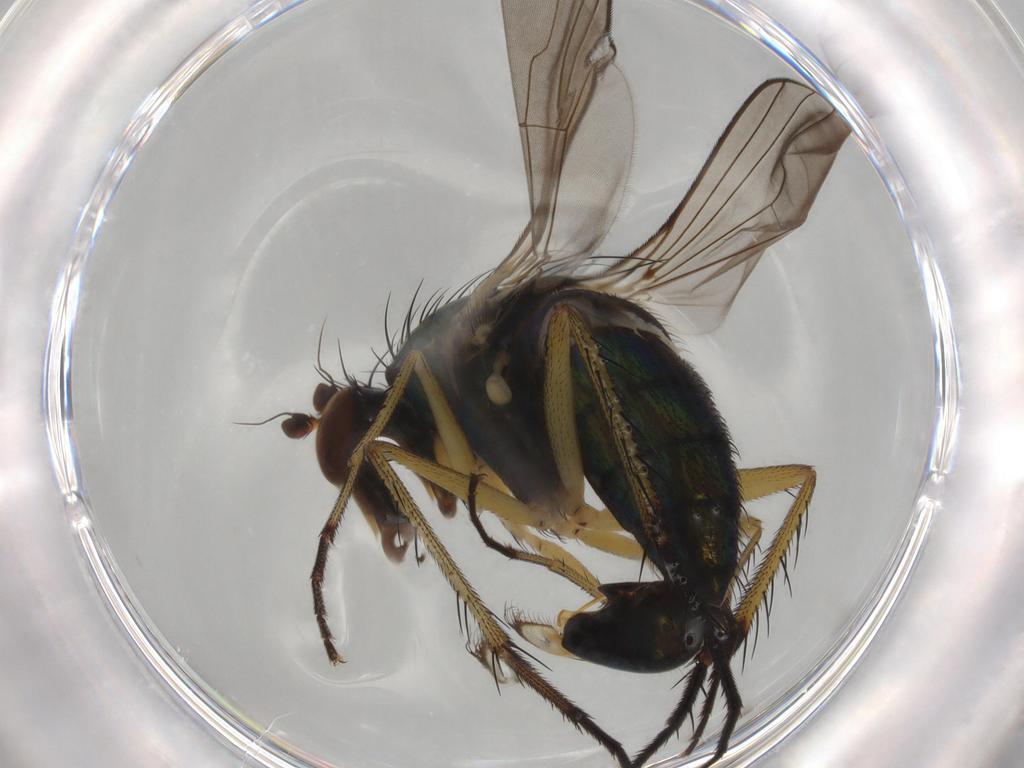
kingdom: Animalia
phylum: Arthropoda
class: Insecta
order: Diptera
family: Dolichopodidae
